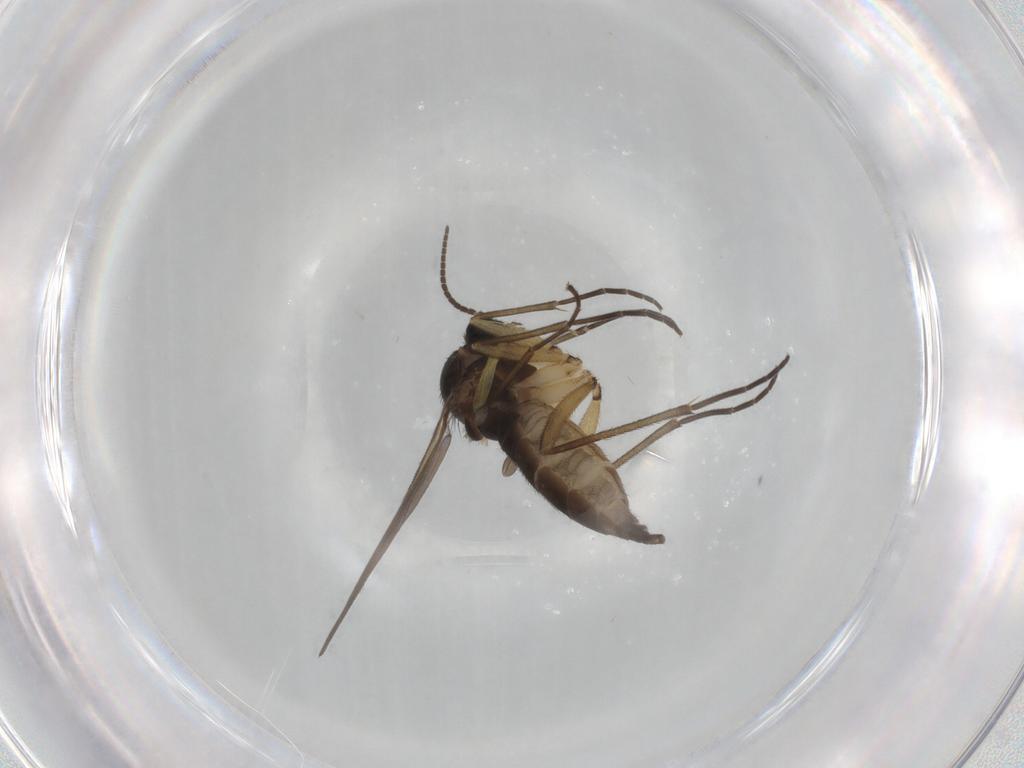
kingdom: Animalia
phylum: Arthropoda
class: Insecta
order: Diptera
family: Sciaridae
